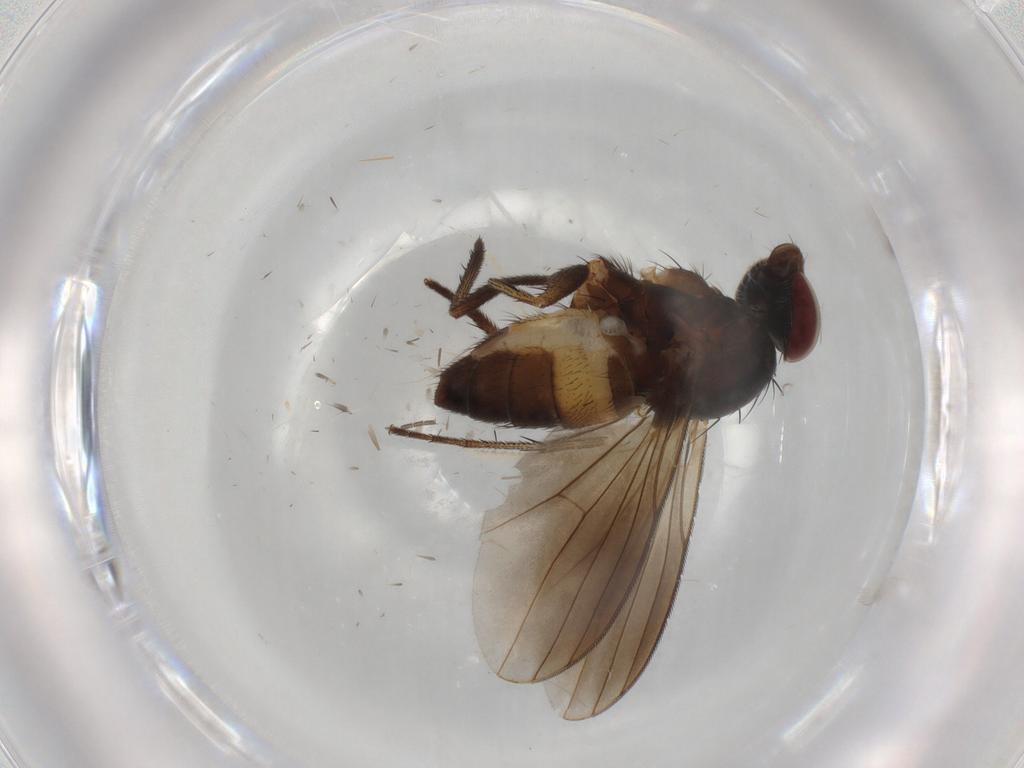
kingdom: Animalia
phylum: Arthropoda
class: Insecta
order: Diptera
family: Dolichopodidae
